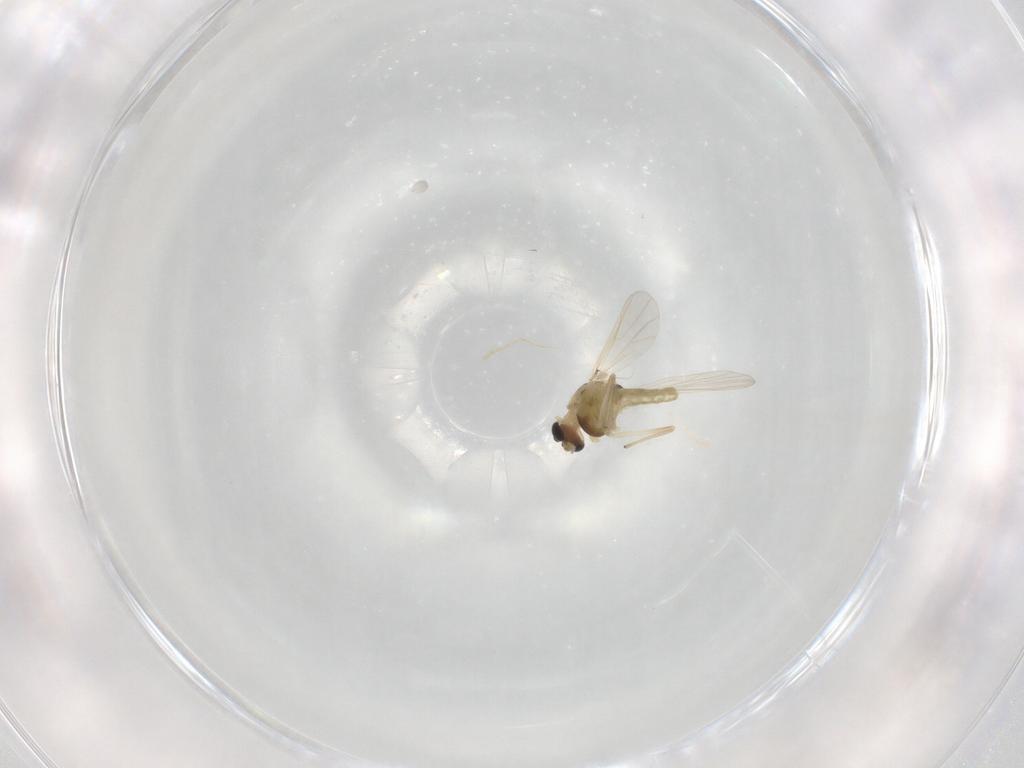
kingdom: Animalia
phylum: Arthropoda
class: Insecta
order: Diptera
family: Chironomidae
